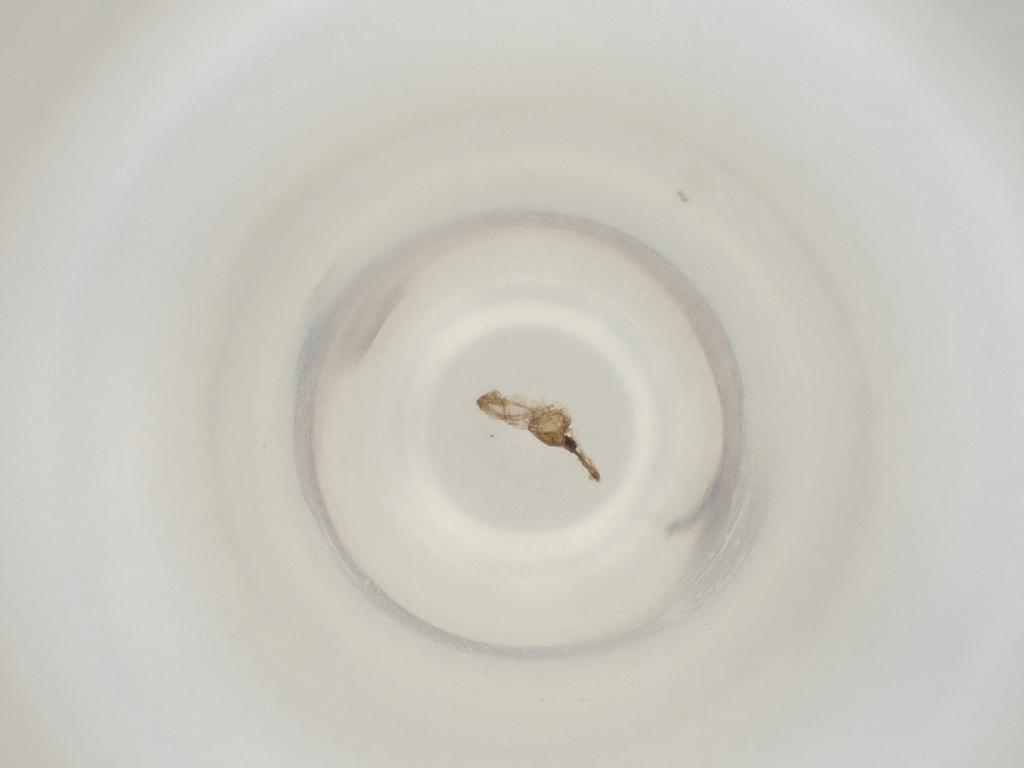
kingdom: Animalia
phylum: Arthropoda
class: Insecta
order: Diptera
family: Cecidomyiidae
